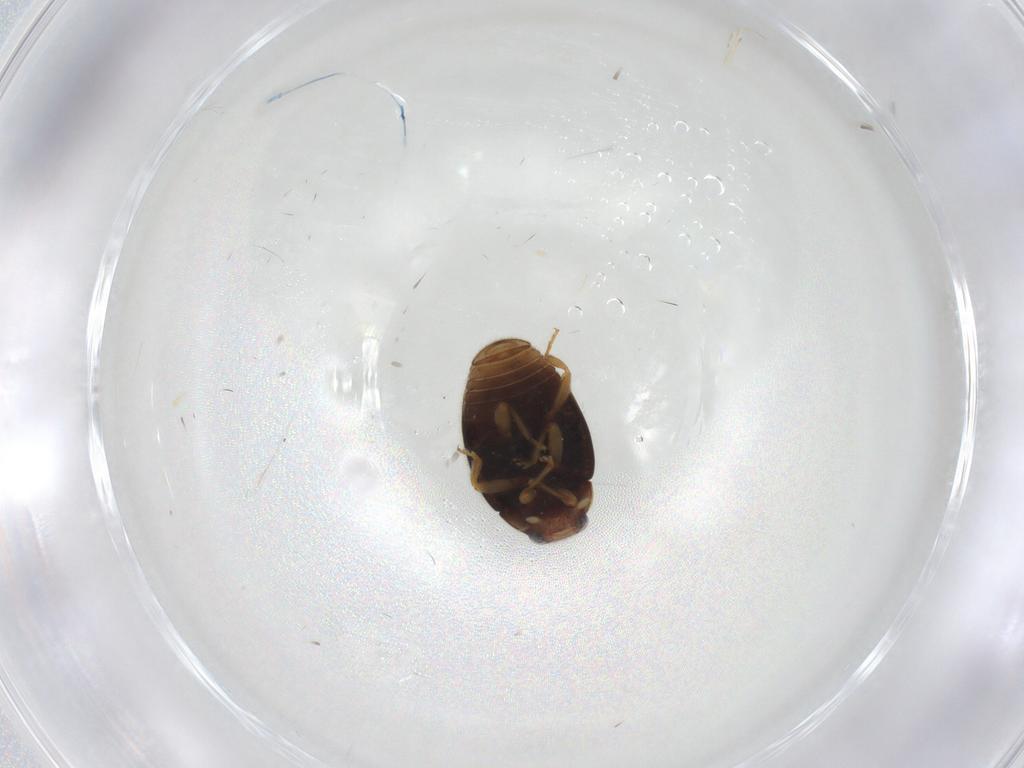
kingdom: Animalia
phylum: Arthropoda
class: Insecta
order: Coleoptera
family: Coccinellidae
